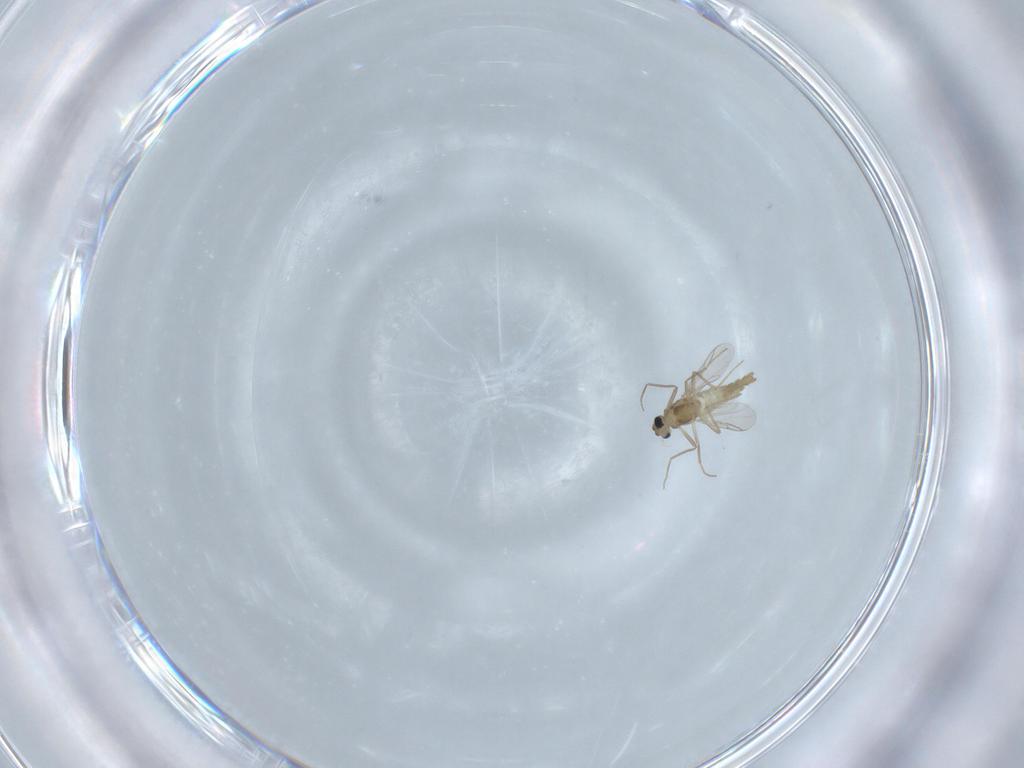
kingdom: Animalia
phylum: Arthropoda
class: Insecta
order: Diptera
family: Chironomidae
